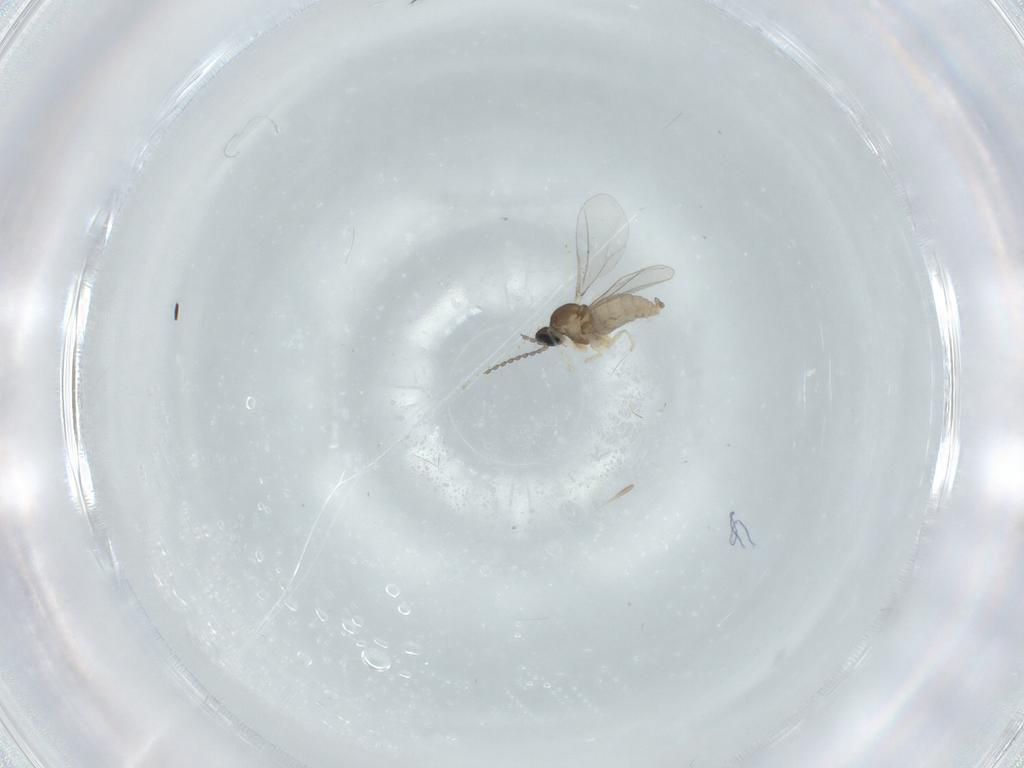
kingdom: Animalia
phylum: Arthropoda
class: Insecta
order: Diptera
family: Cecidomyiidae
